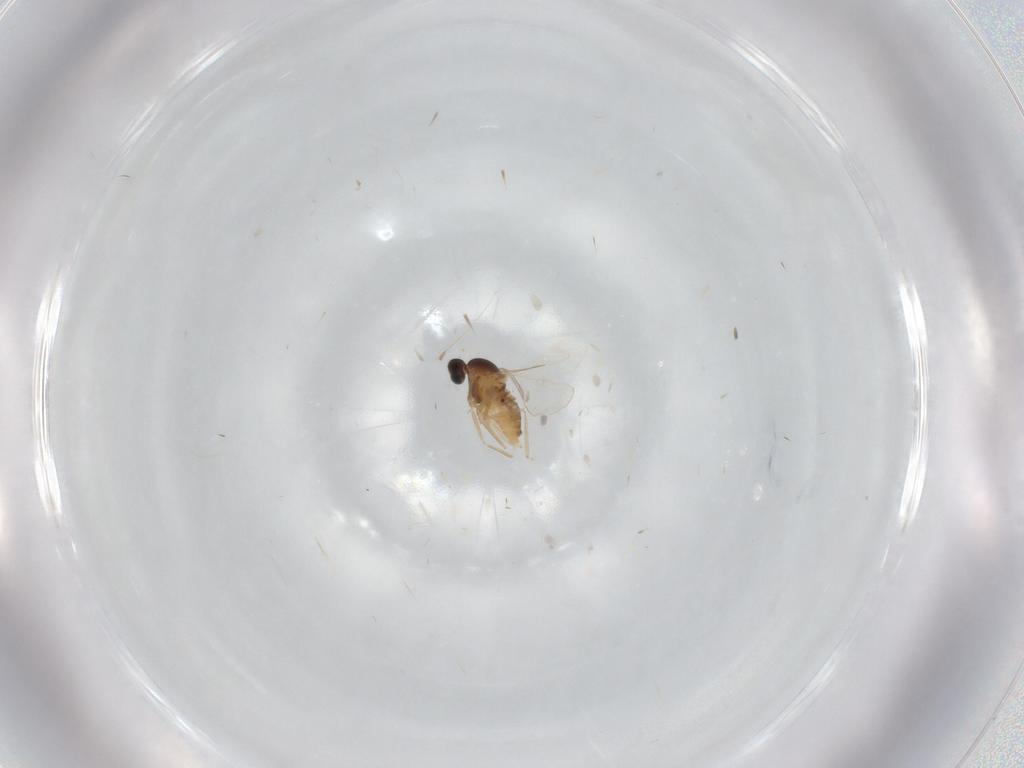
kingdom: Animalia
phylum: Arthropoda
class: Insecta
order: Diptera
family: Cecidomyiidae
